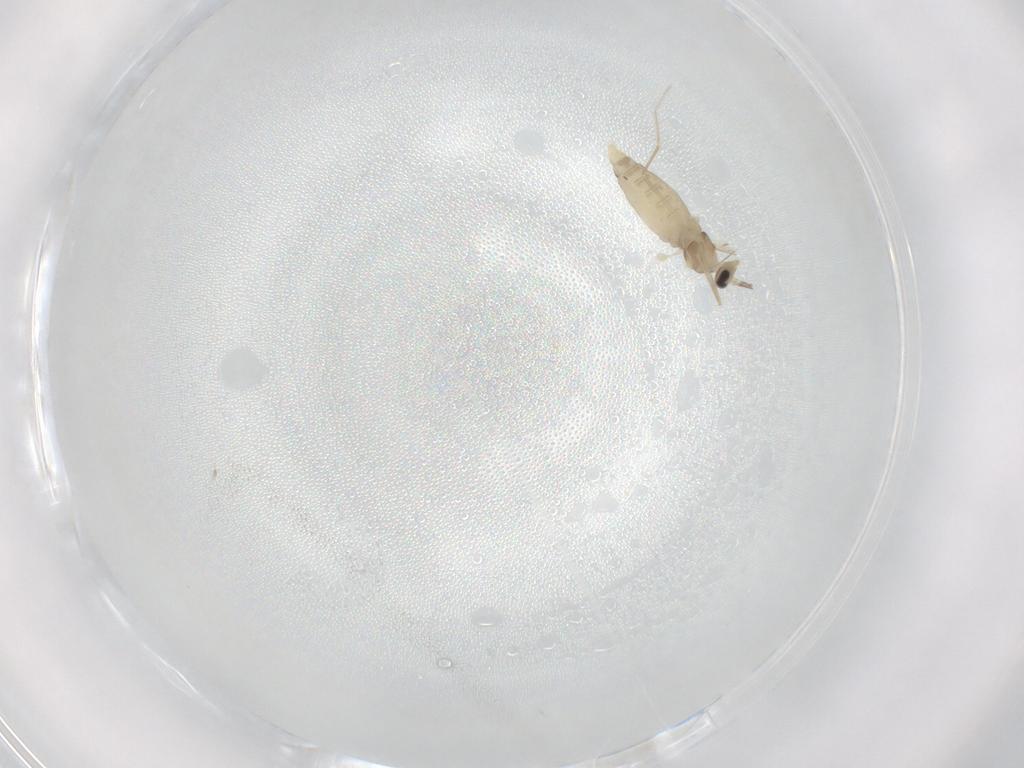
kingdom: Animalia
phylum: Arthropoda
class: Insecta
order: Diptera
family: Cecidomyiidae
